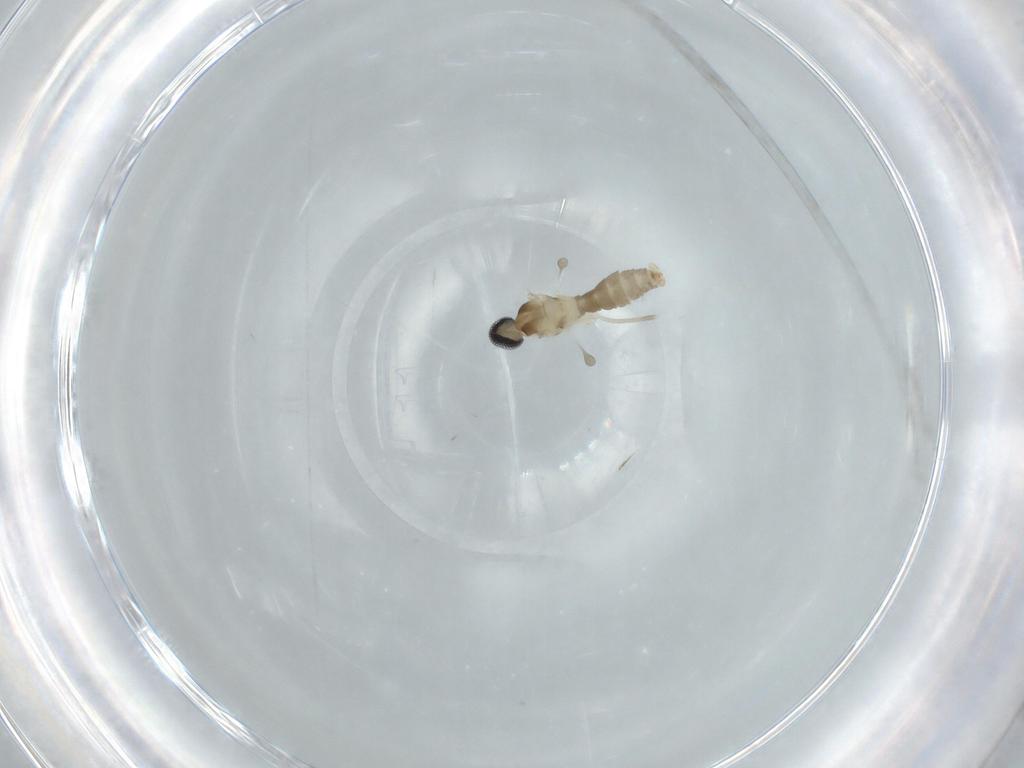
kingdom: Animalia
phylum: Arthropoda
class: Insecta
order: Diptera
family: Cecidomyiidae
